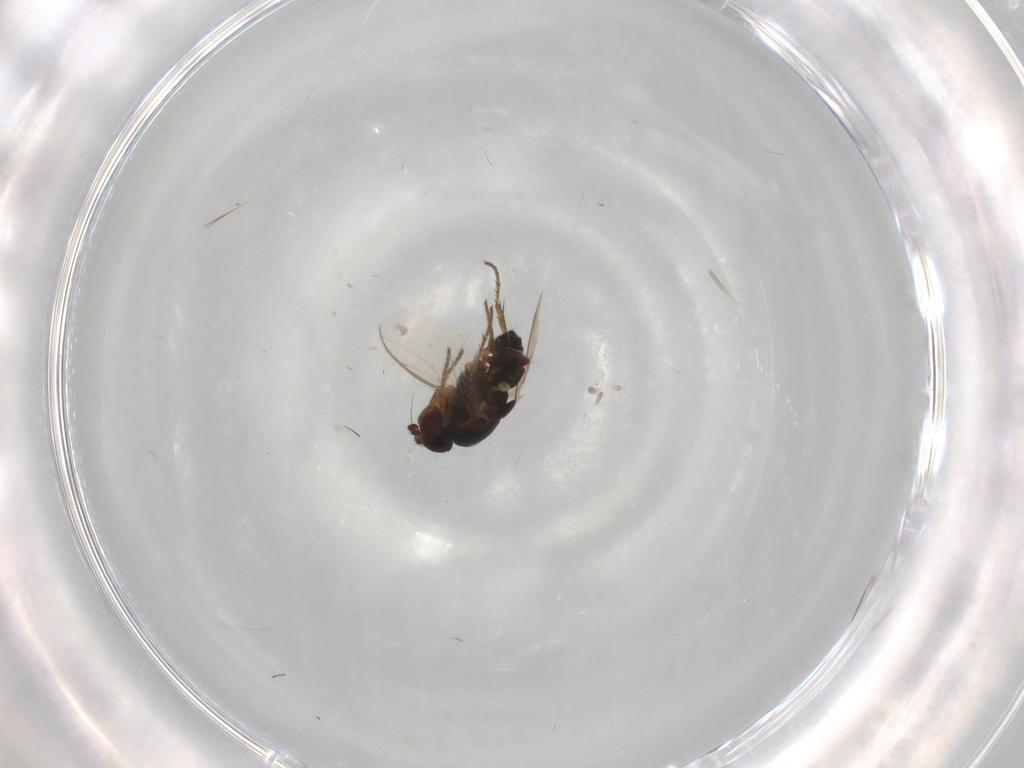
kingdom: Animalia
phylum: Arthropoda
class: Insecta
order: Diptera
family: Sphaeroceridae
